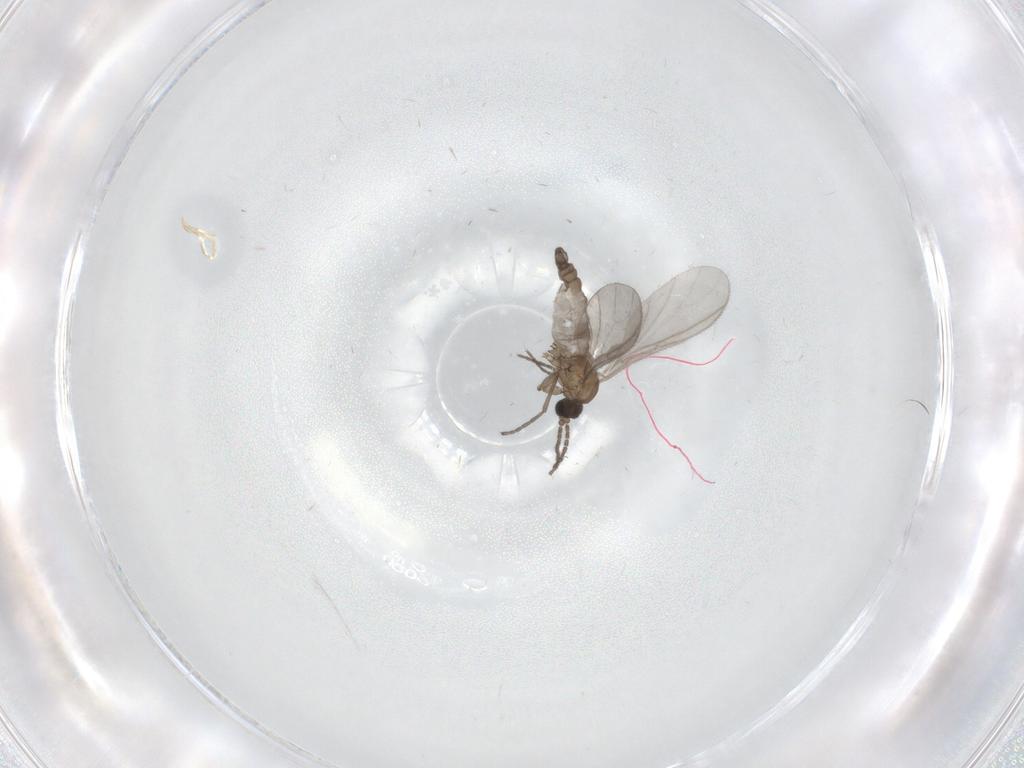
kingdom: Animalia
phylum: Arthropoda
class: Insecta
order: Diptera
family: Sciaridae
